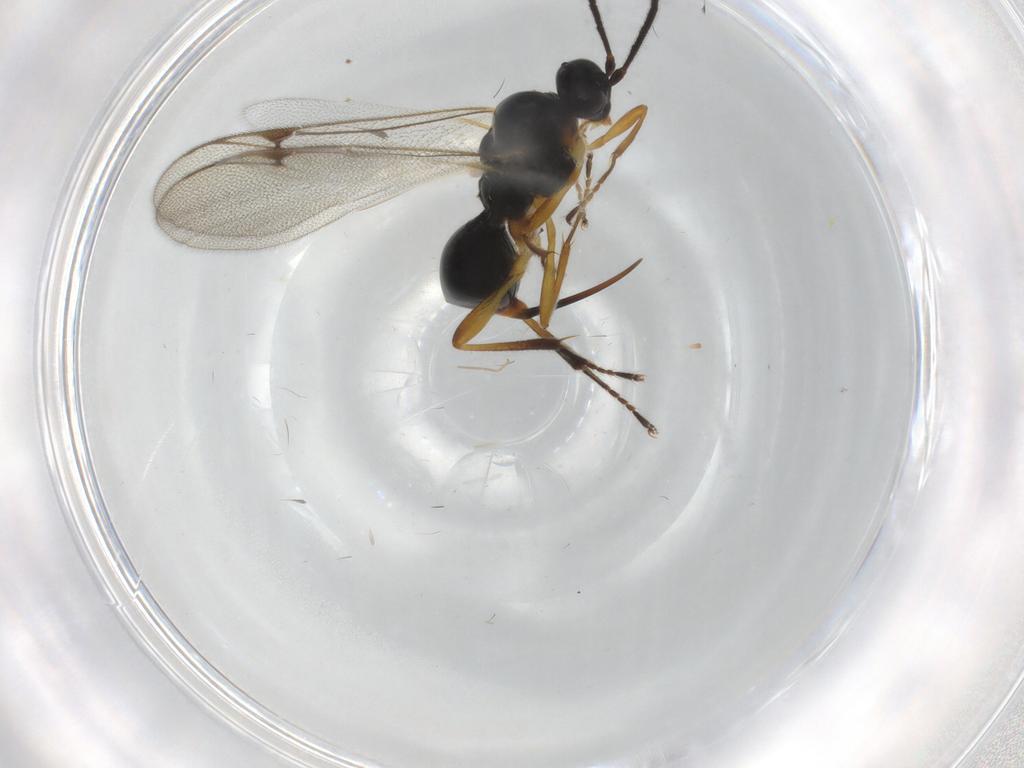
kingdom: Animalia
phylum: Arthropoda
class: Insecta
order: Hymenoptera
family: Proctotrupidae
